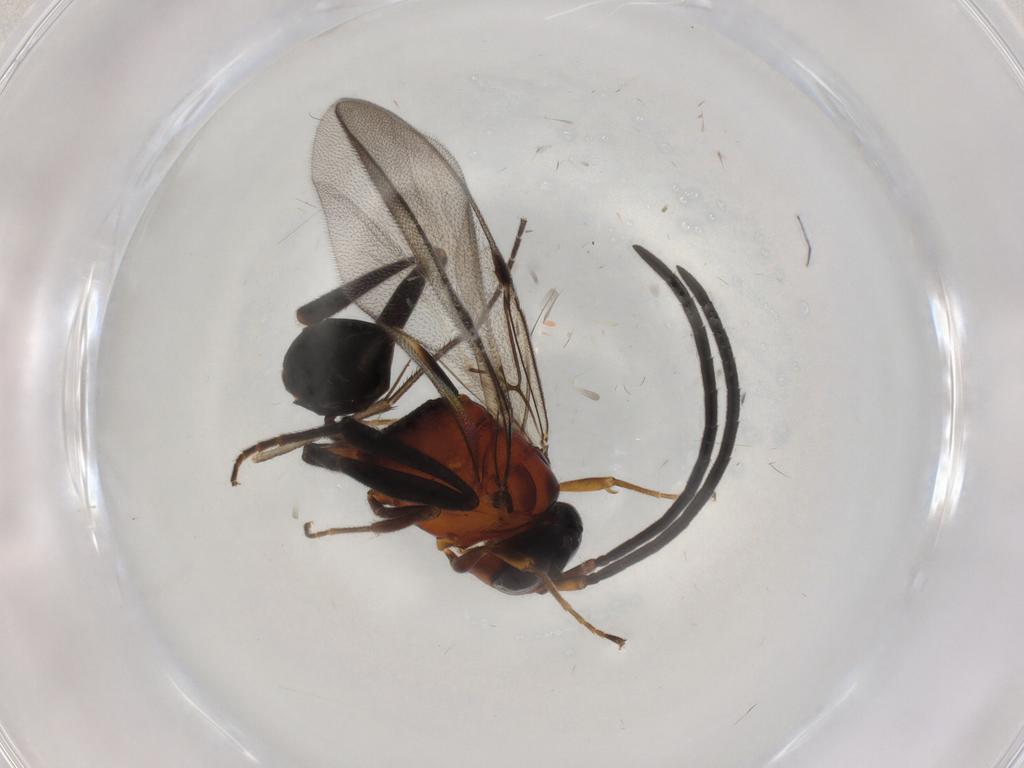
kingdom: Animalia
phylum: Arthropoda
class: Insecta
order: Hymenoptera
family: Evaniidae
